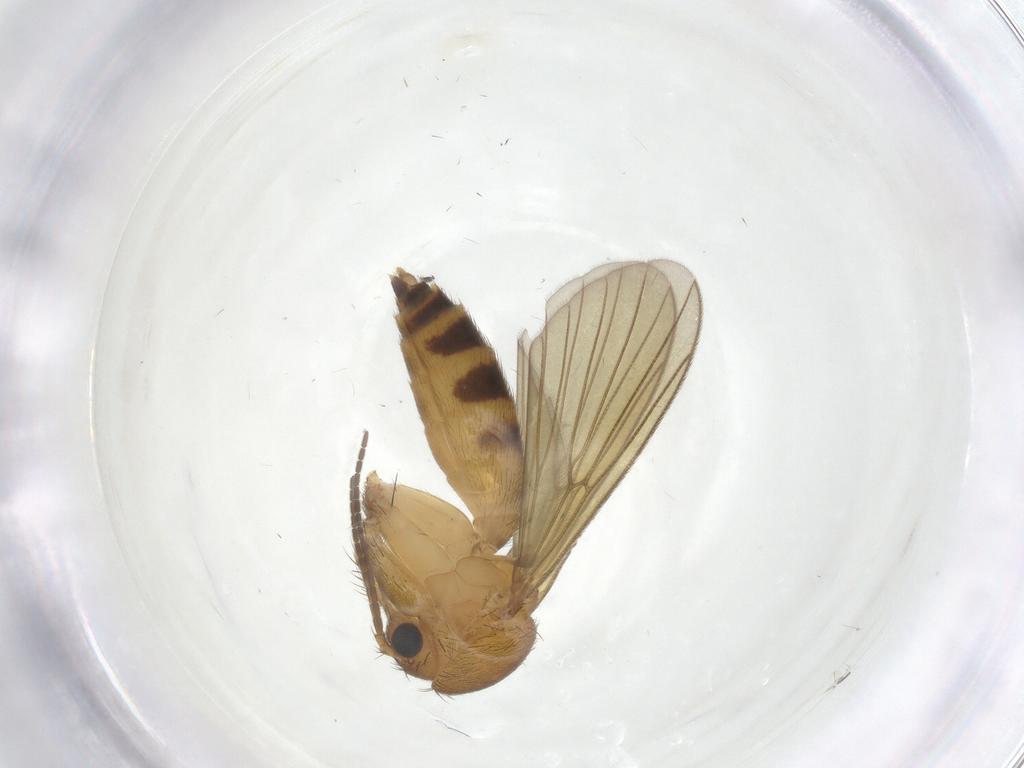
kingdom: Animalia
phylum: Arthropoda
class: Insecta
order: Diptera
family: Mycetophilidae
